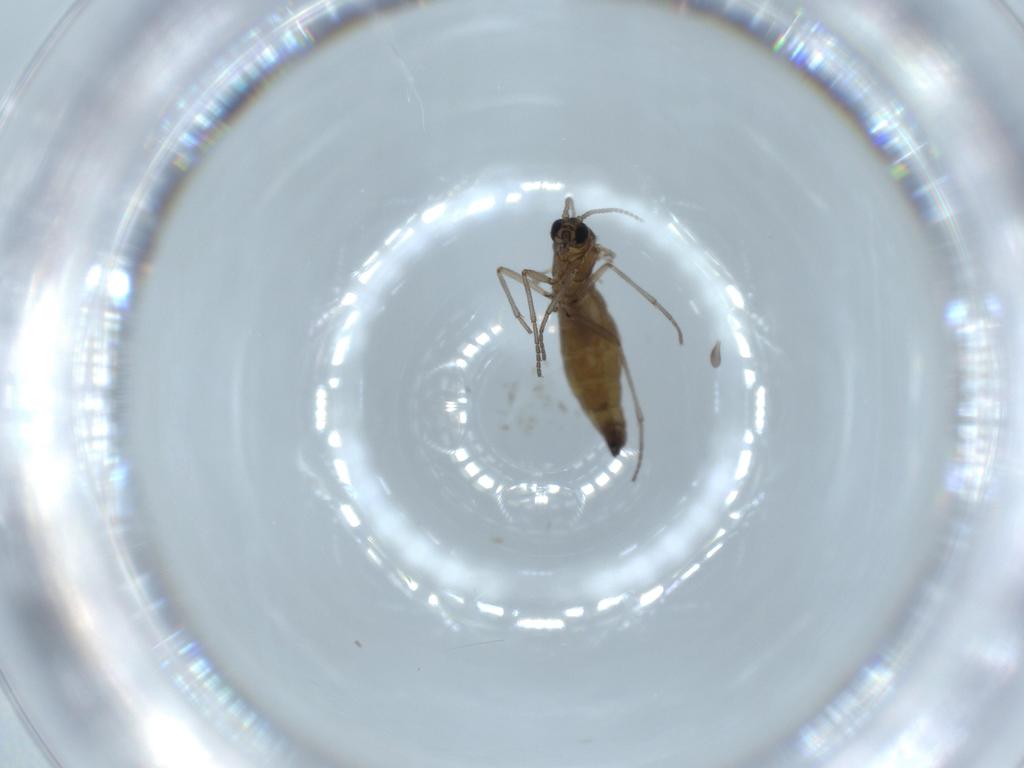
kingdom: Animalia
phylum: Arthropoda
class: Insecta
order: Diptera
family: Sciaridae
